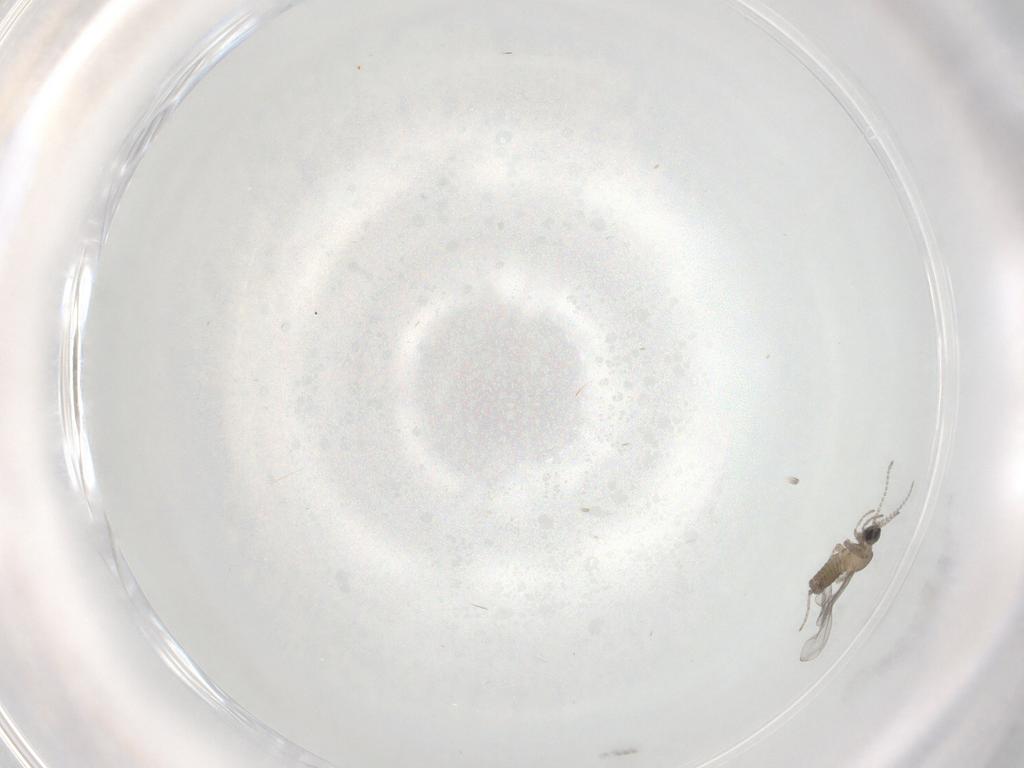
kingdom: Animalia
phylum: Arthropoda
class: Insecta
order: Diptera
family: Cecidomyiidae
